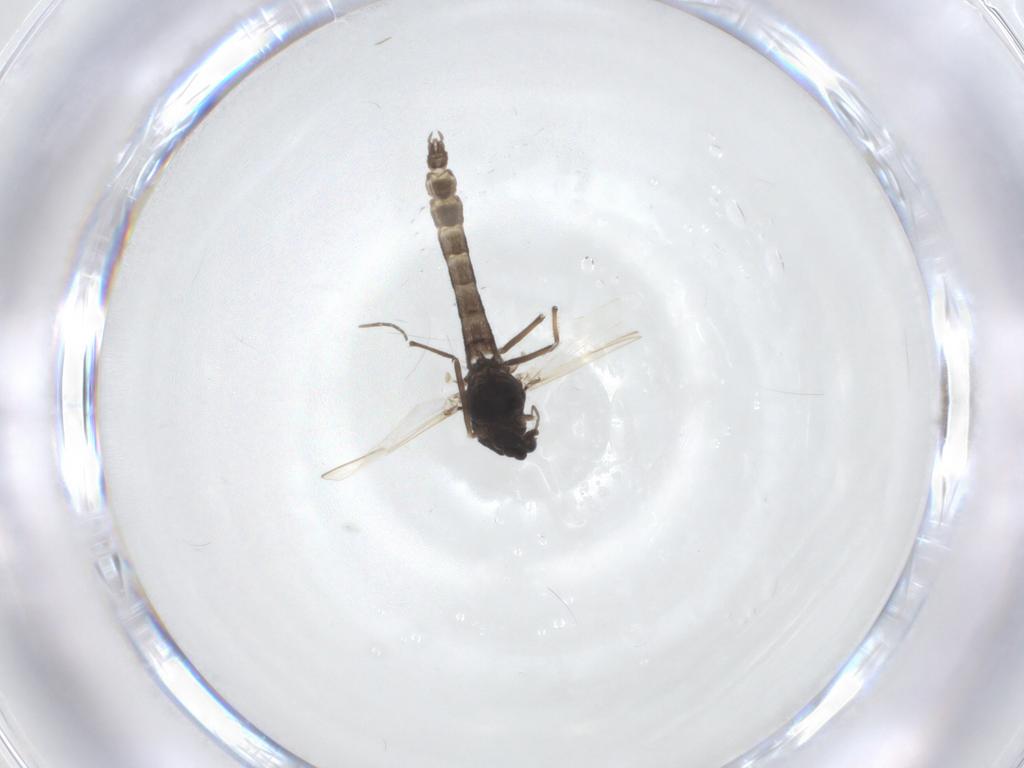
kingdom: Animalia
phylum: Arthropoda
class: Insecta
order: Diptera
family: Chironomidae
